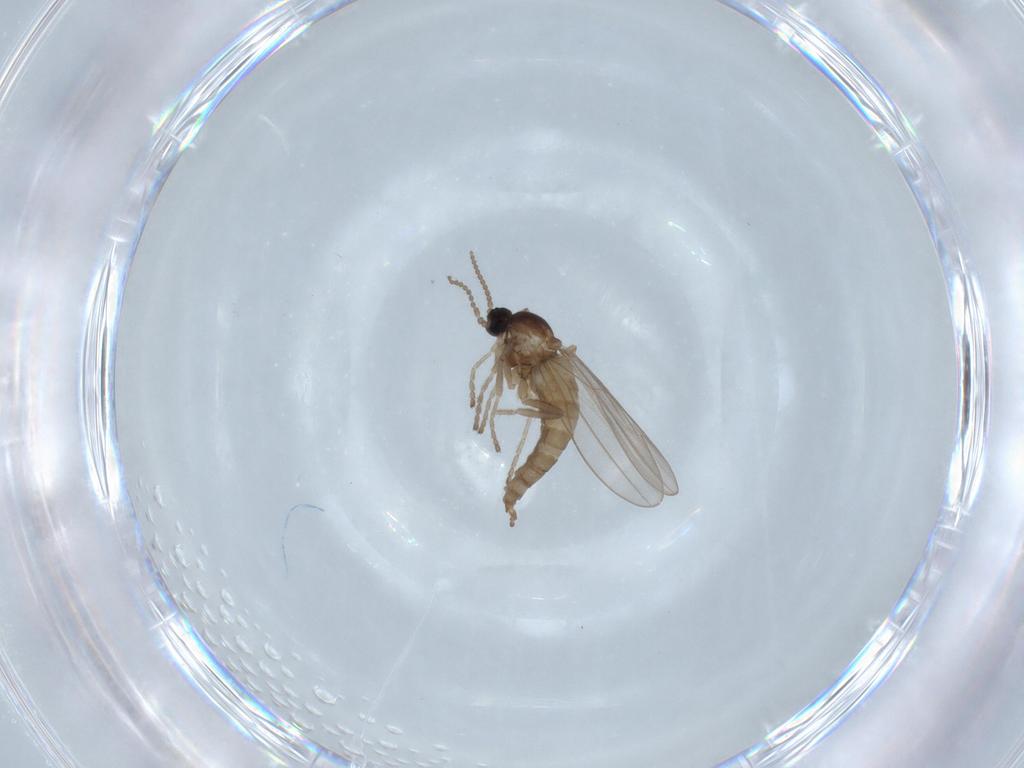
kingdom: Animalia
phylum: Arthropoda
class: Insecta
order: Diptera
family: Cecidomyiidae
